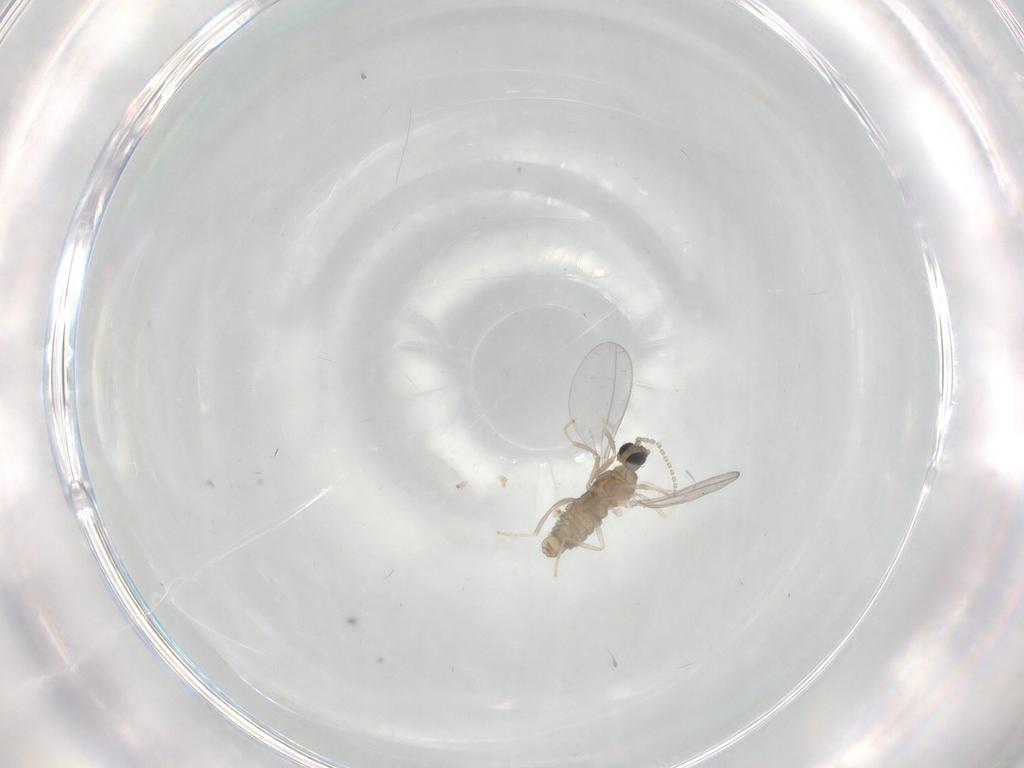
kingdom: Animalia
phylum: Arthropoda
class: Insecta
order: Diptera
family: Cecidomyiidae
